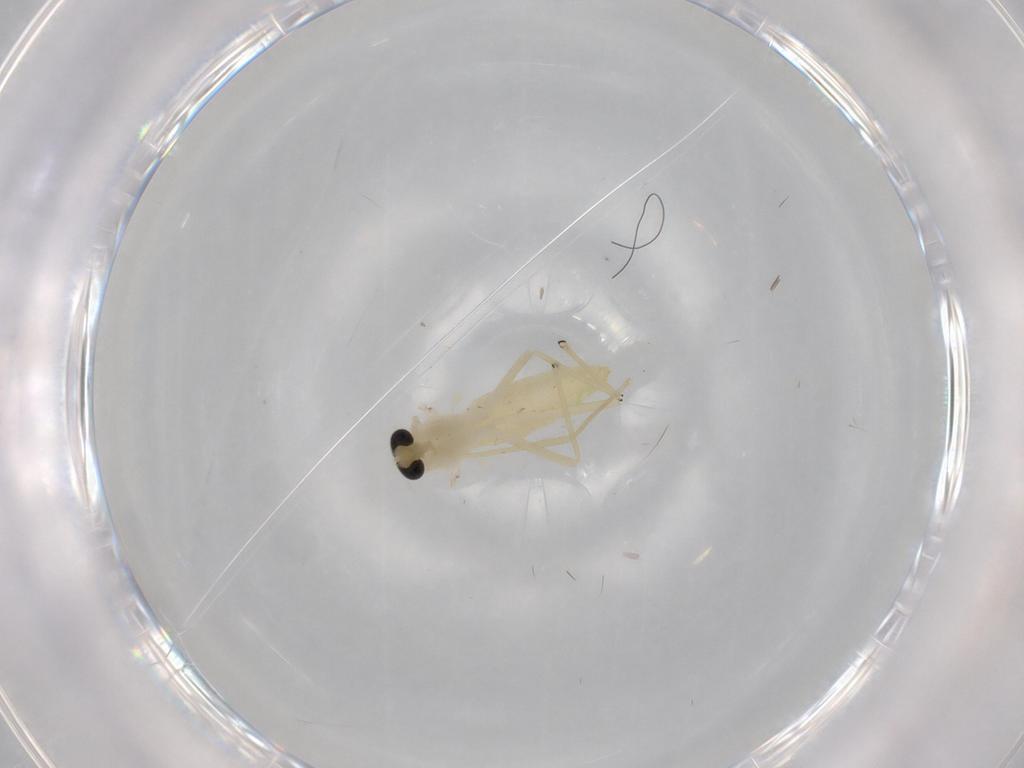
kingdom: Animalia
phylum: Arthropoda
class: Insecta
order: Diptera
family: Chironomidae
